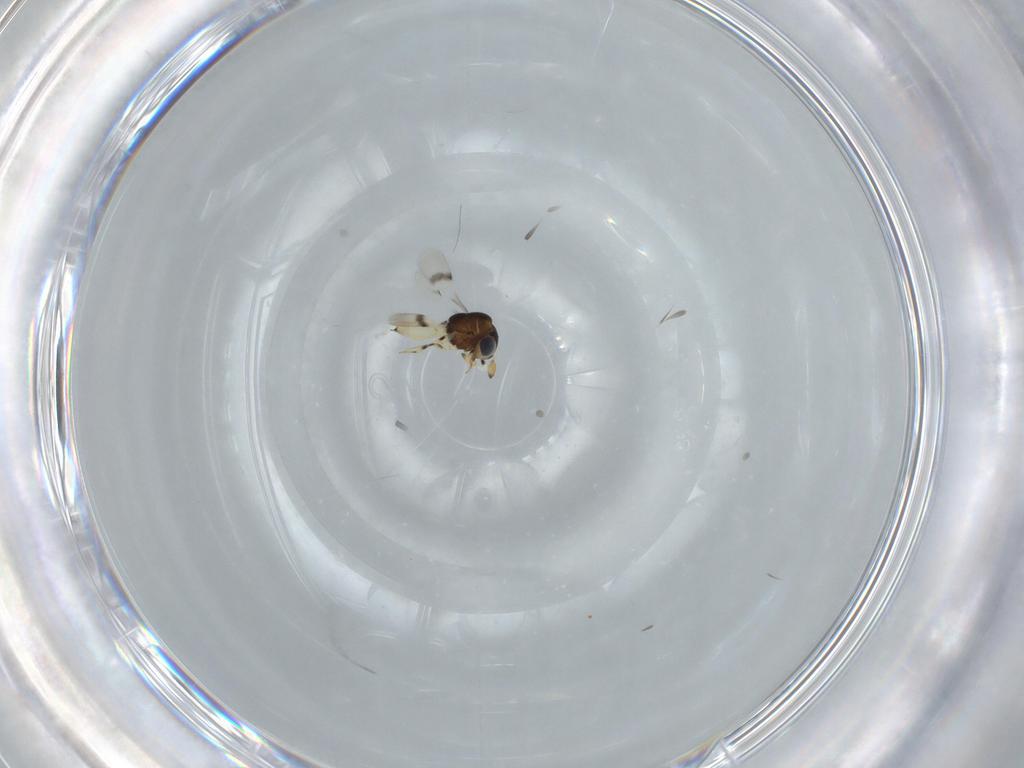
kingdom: Animalia
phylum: Arthropoda
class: Insecta
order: Hymenoptera
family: Scelionidae
